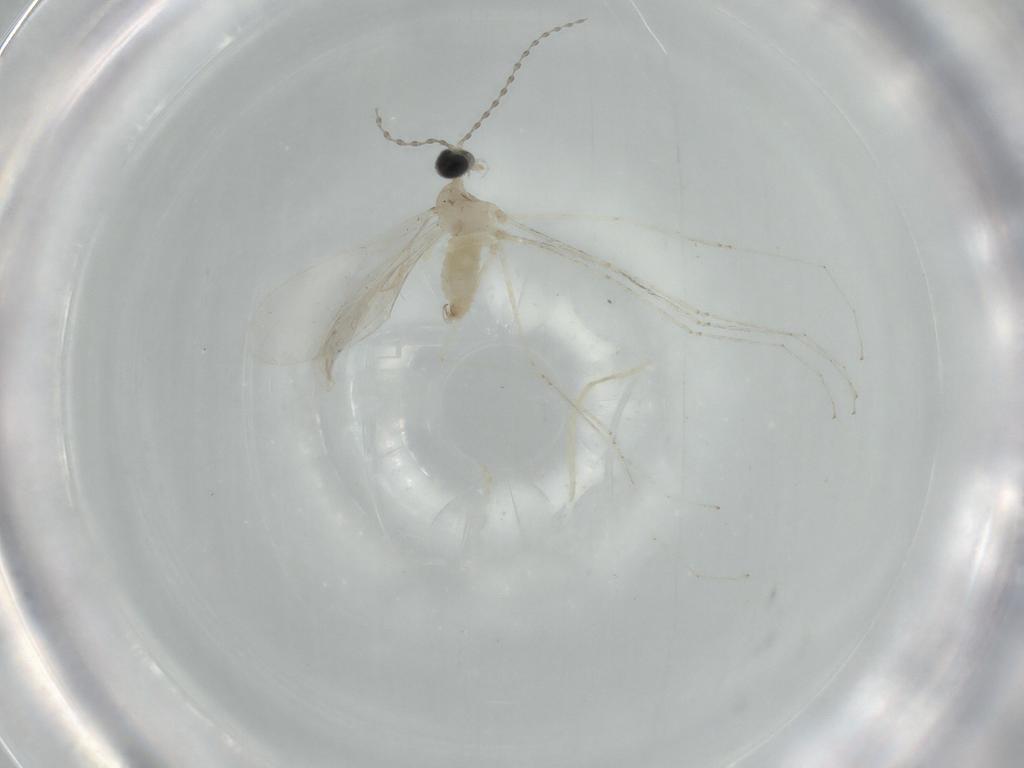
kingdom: Animalia
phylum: Arthropoda
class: Insecta
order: Diptera
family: Cecidomyiidae
